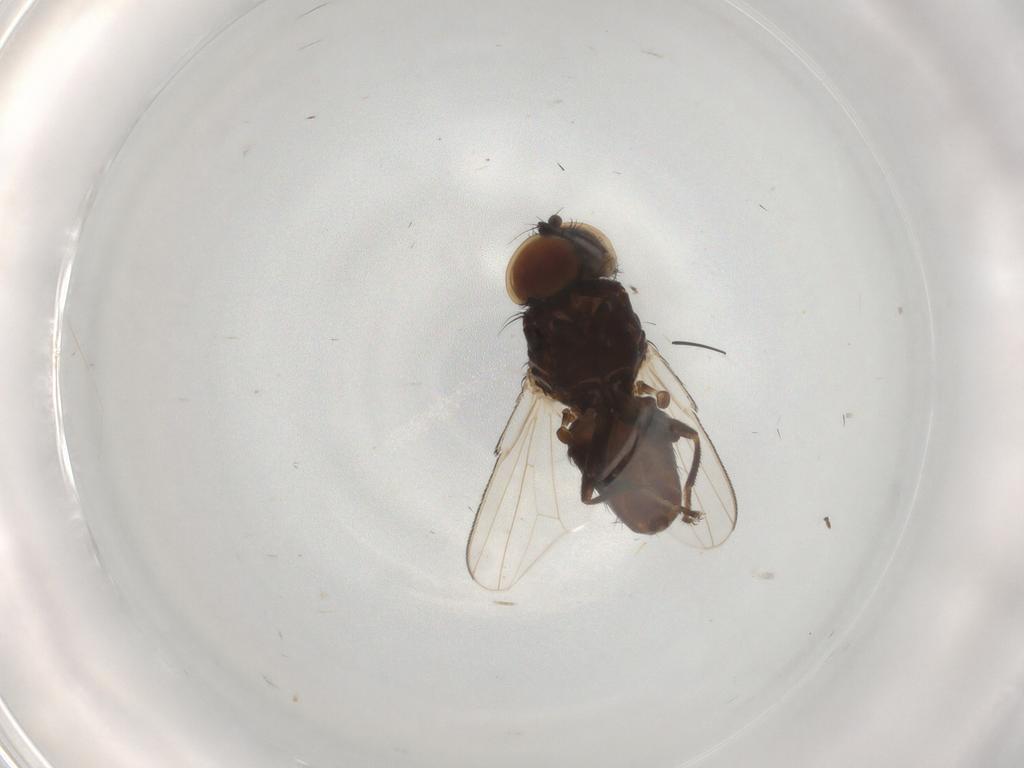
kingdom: Animalia
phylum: Arthropoda
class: Insecta
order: Diptera
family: Milichiidae
